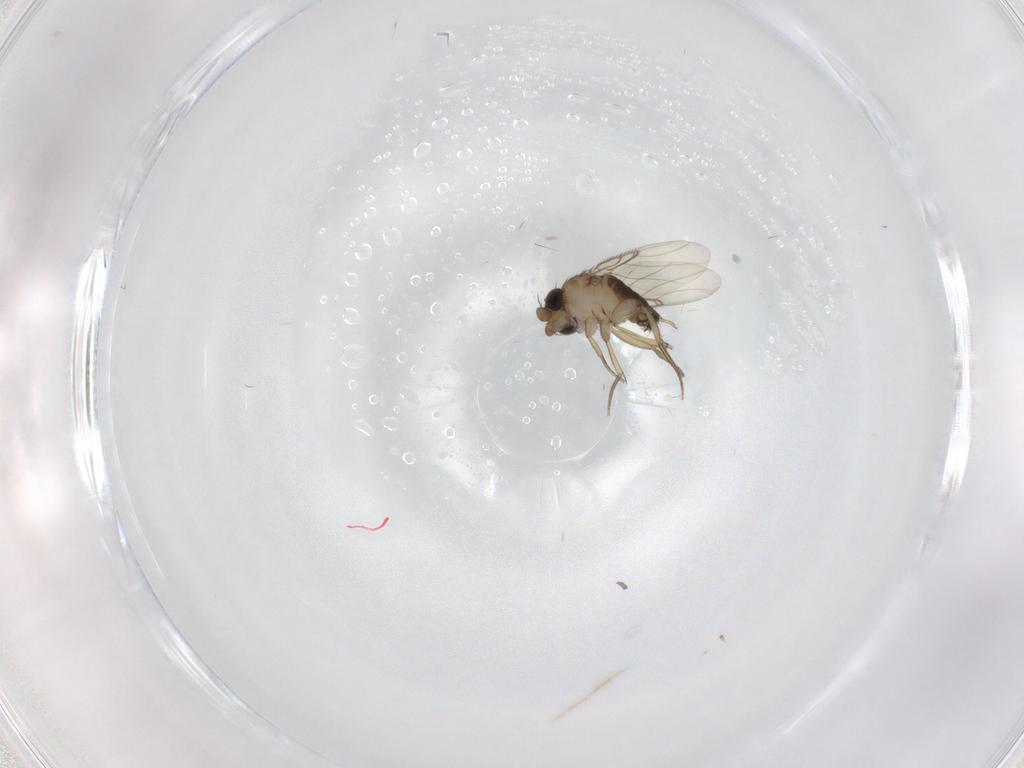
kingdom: Animalia
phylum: Arthropoda
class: Insecta
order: Diptera
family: Phoridae
